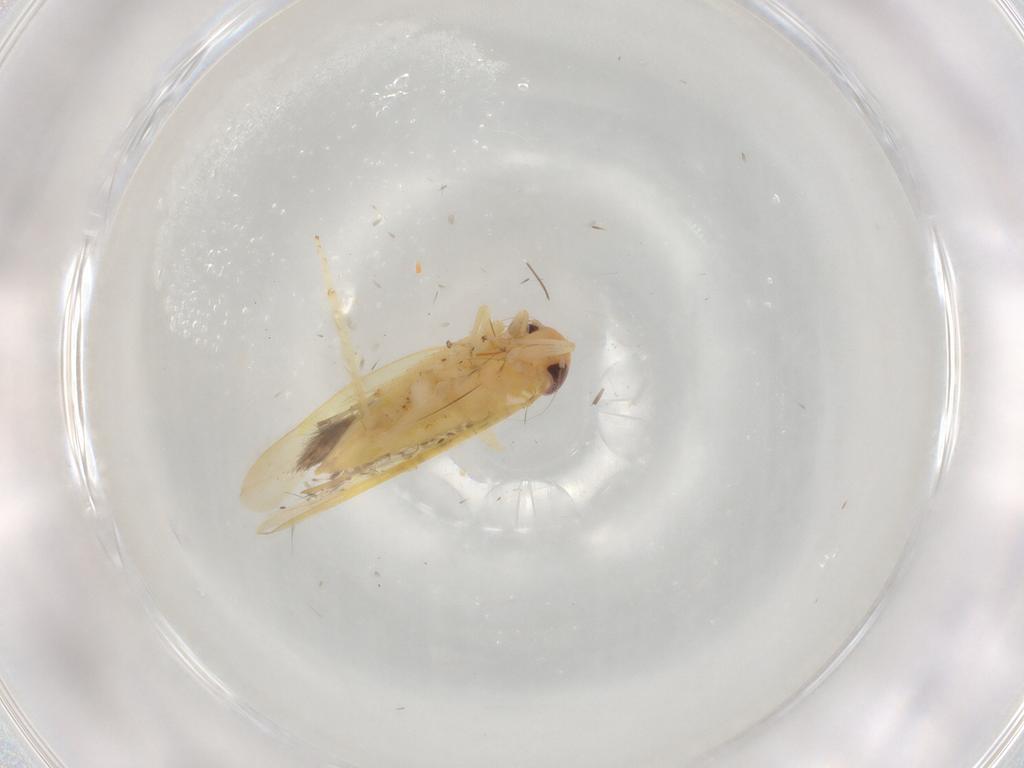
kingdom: Animalia
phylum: Arthropoda
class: Insecta
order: Hemiptera
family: Cicadellidae
